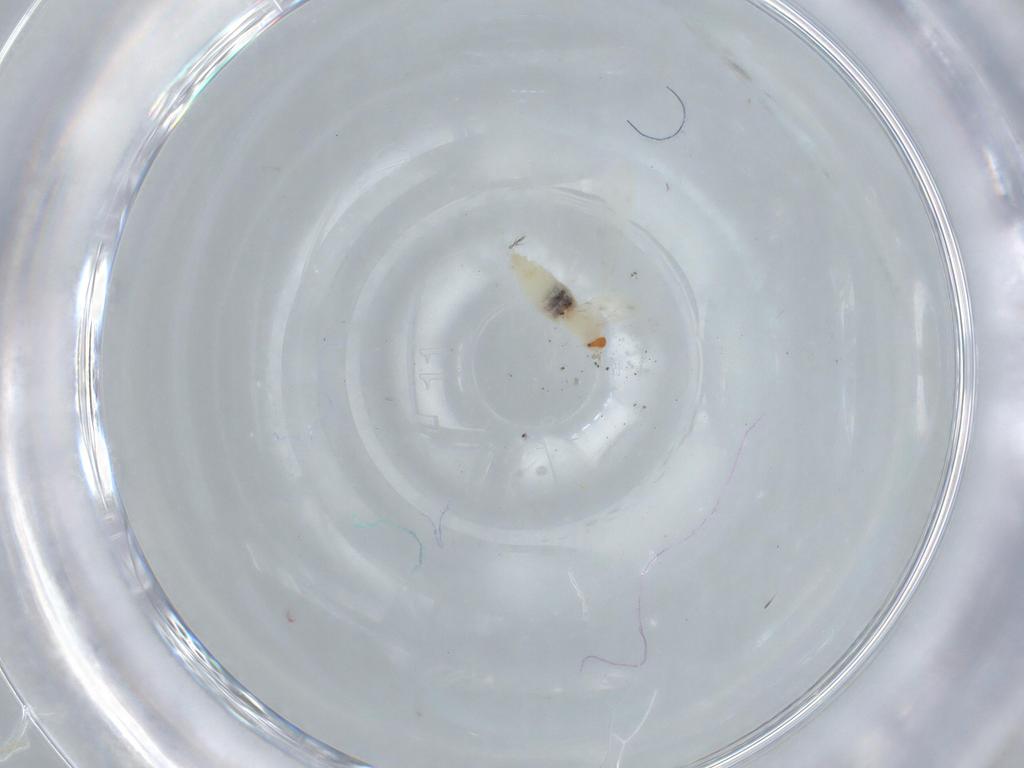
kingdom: Animalia
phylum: Arthropoda
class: Insecta
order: Diptera
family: Cecidomyiidae
